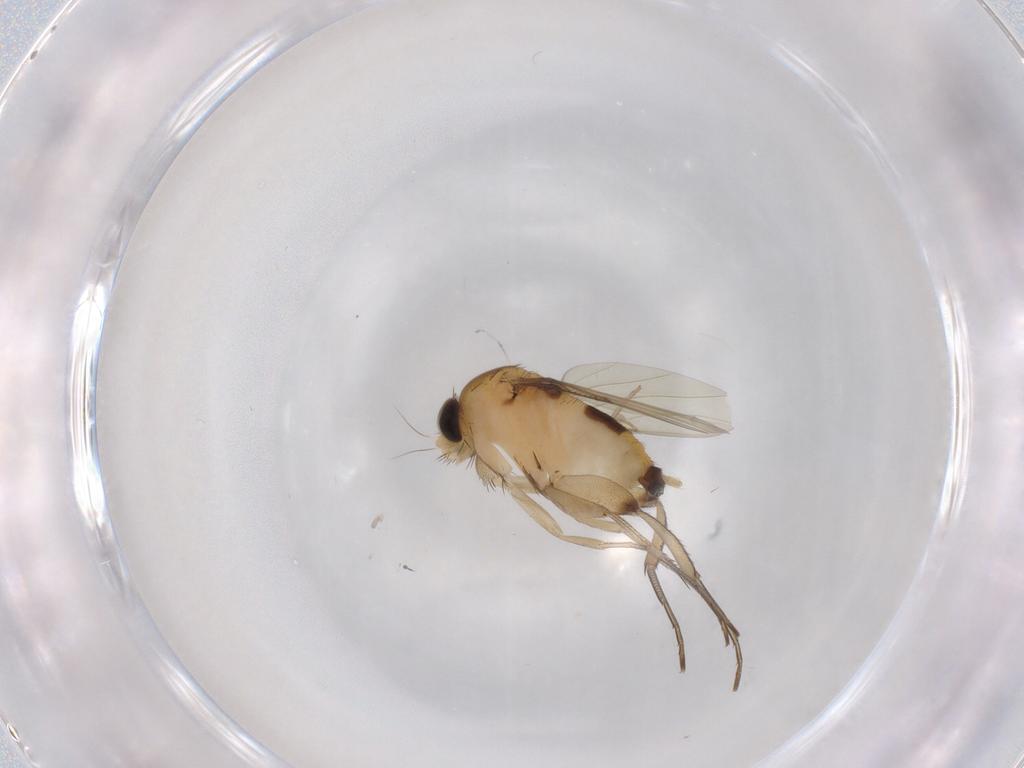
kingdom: Animalia
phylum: Arthropoda
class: Insecta
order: Diptera
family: Phoridae
